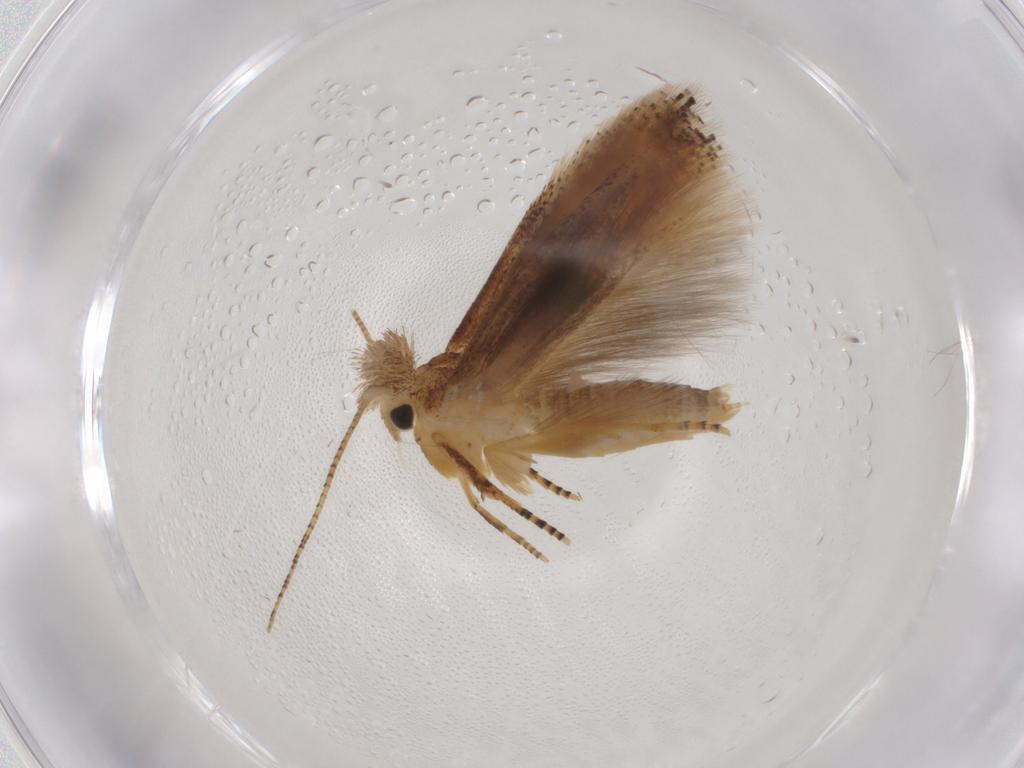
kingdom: Animalia
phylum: Arthropoda
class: Insecta
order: Lepidoptera
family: Crambidae
